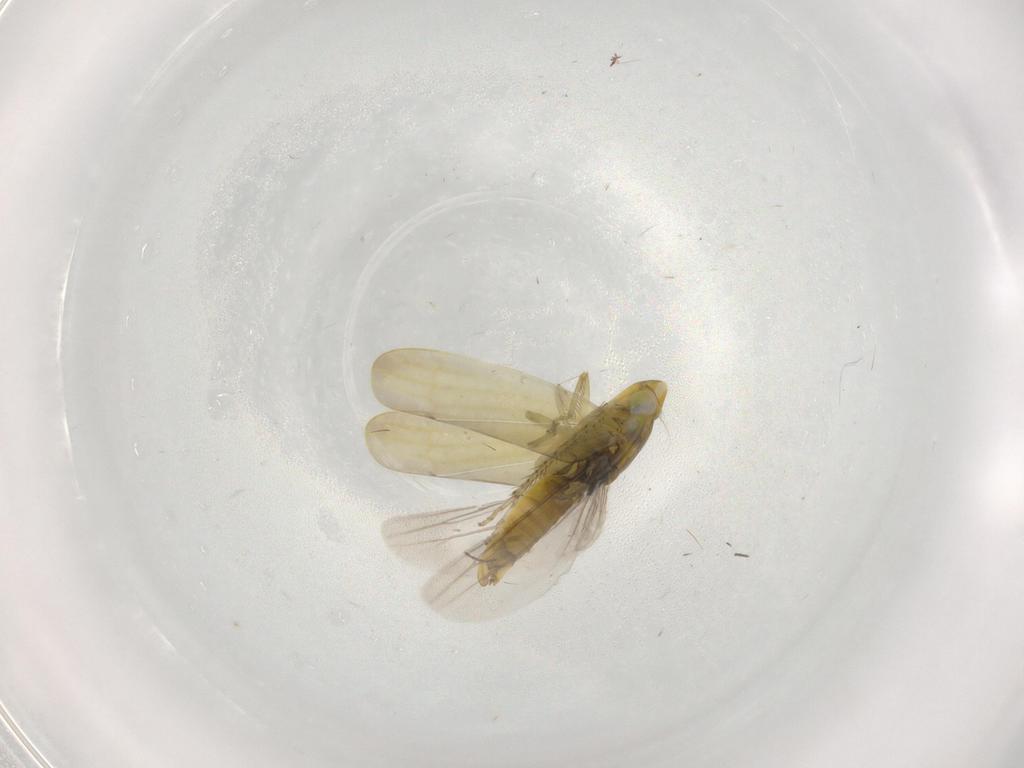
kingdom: Animalia
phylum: Arthropoda
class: Insecta
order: Hemiptera
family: Cicadellidae
